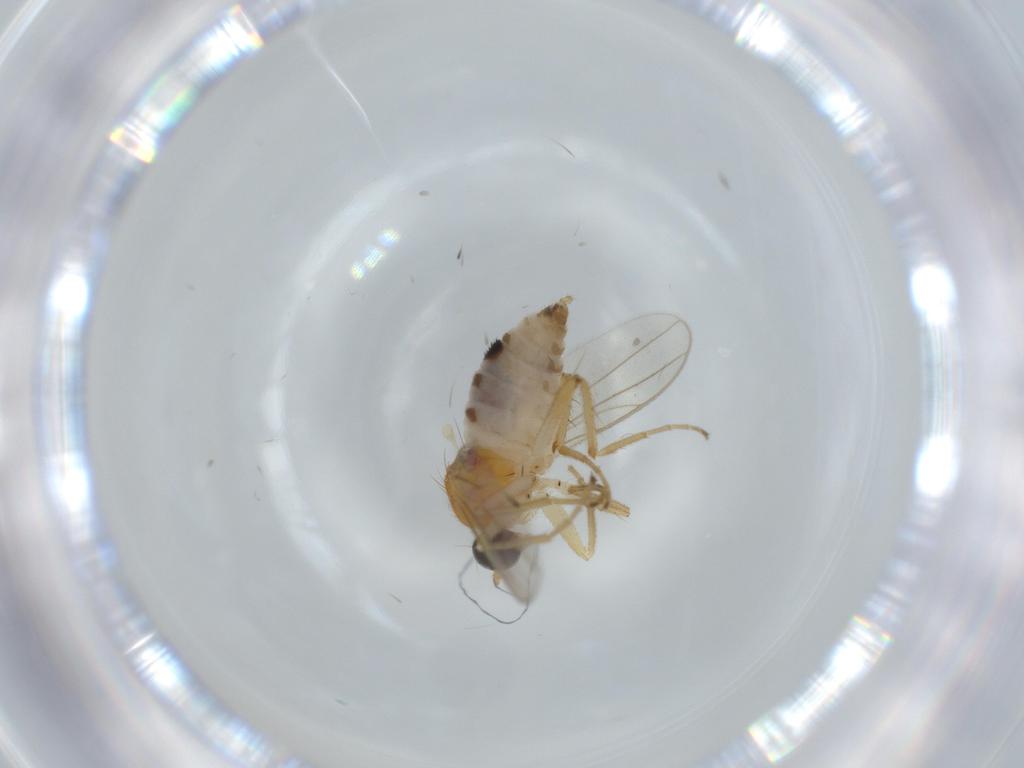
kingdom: Animalia
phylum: Arthropoda
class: Insecta
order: Diptera
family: Hybotidae
